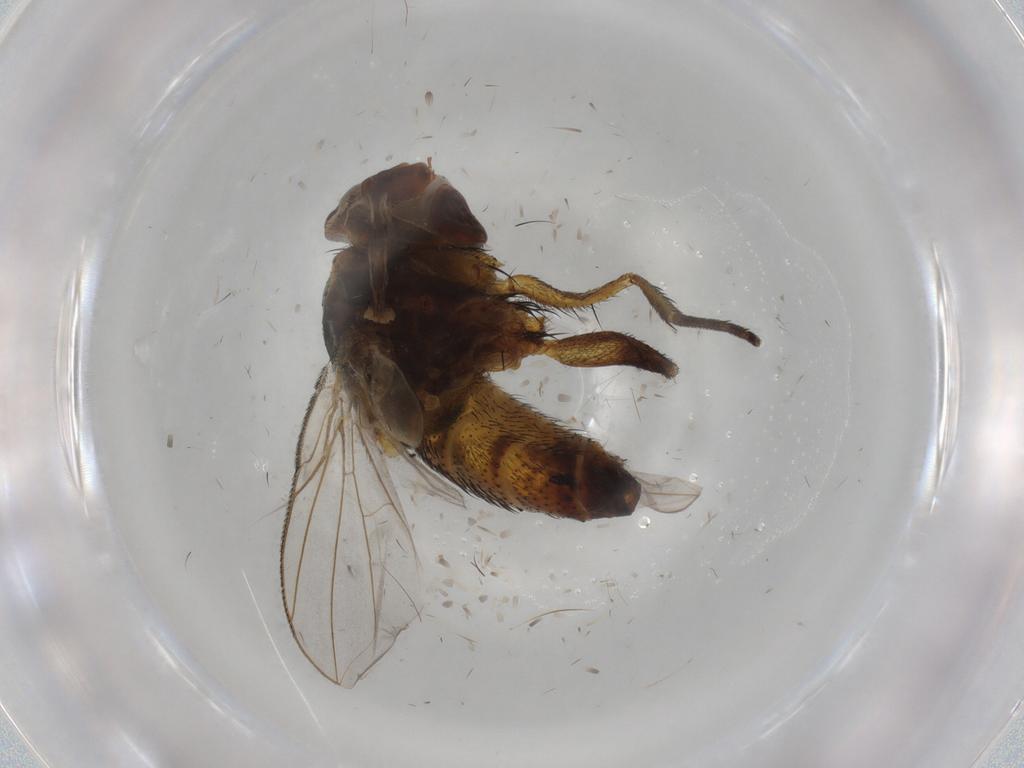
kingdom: Animalia
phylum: Arthropoda
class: Insecta
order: Diptera
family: Glossinidae
